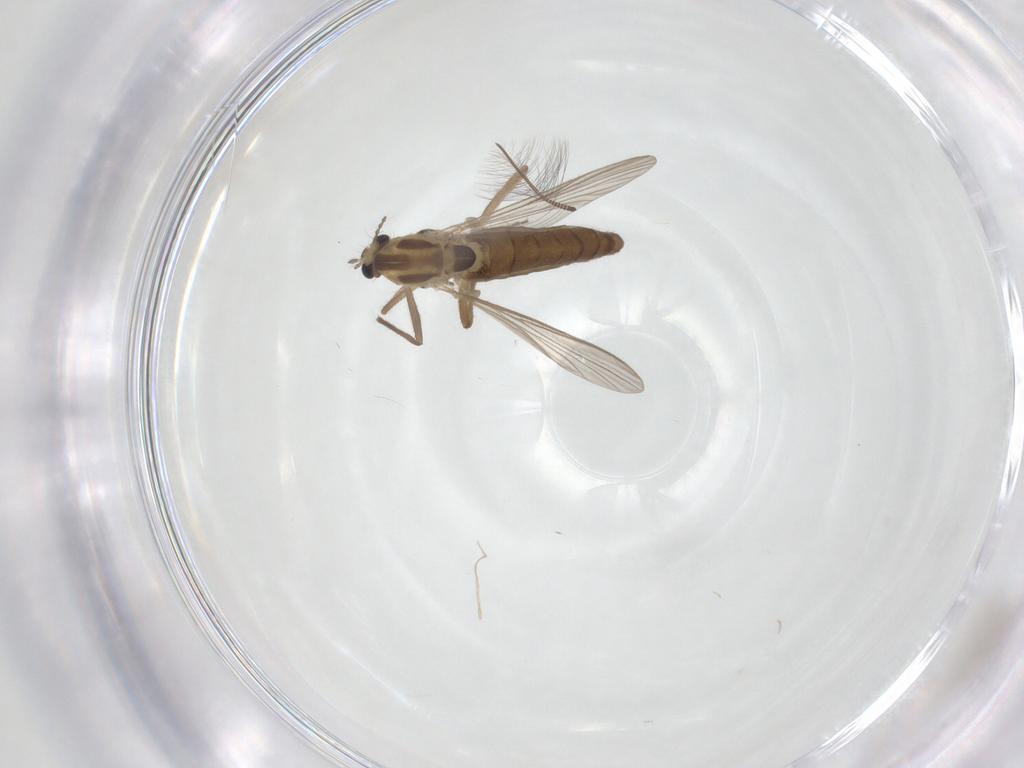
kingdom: Animalia
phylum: Arthropoda
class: Insecta
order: Diptera
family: Chironomidae
